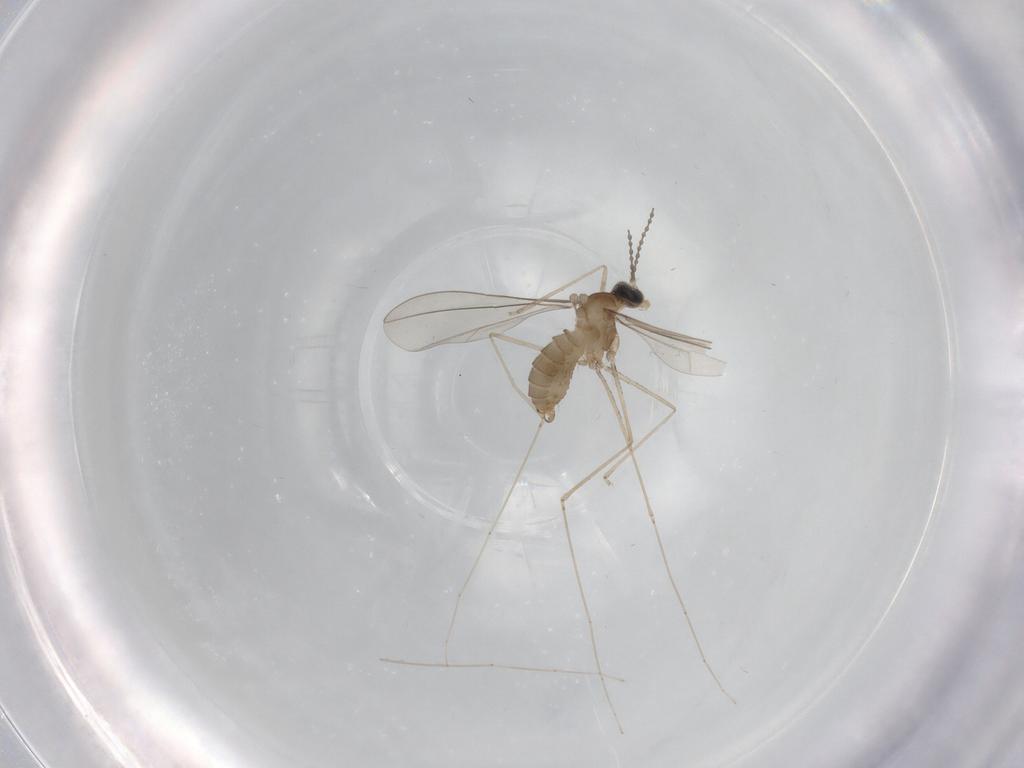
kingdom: Animalia
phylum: Arthropoda
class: Insecta
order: Diptera
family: Cecidomyiidae
